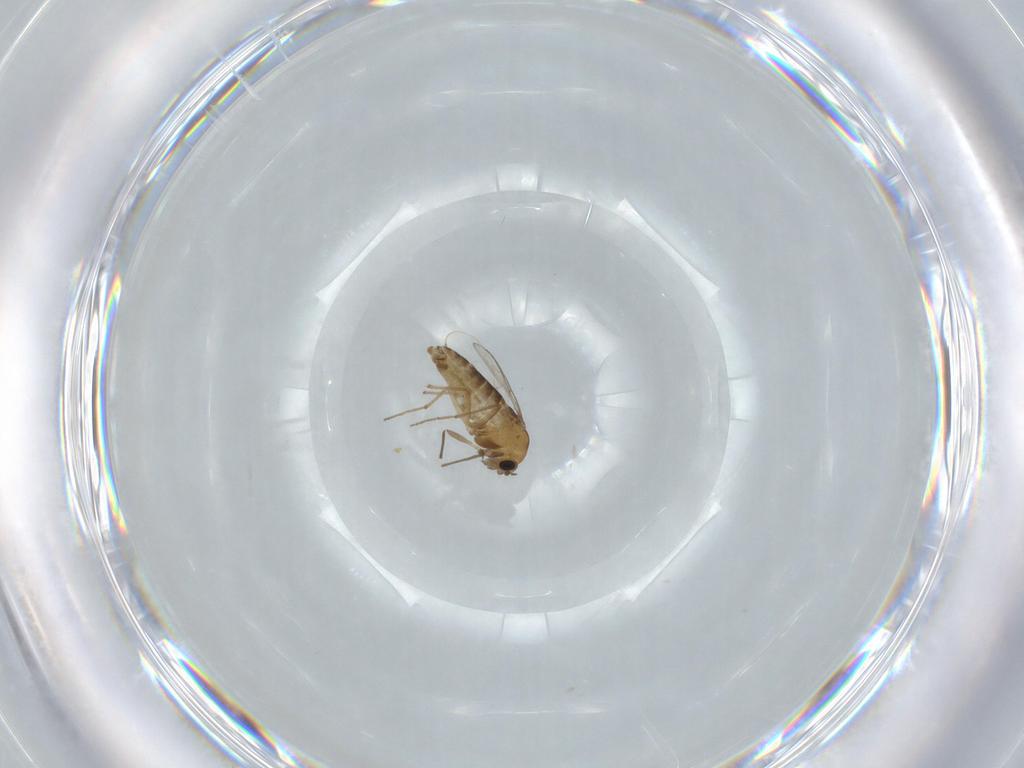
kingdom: Animalia
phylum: Arthropoda
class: Insecta
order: Diptera
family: Chironomidae
